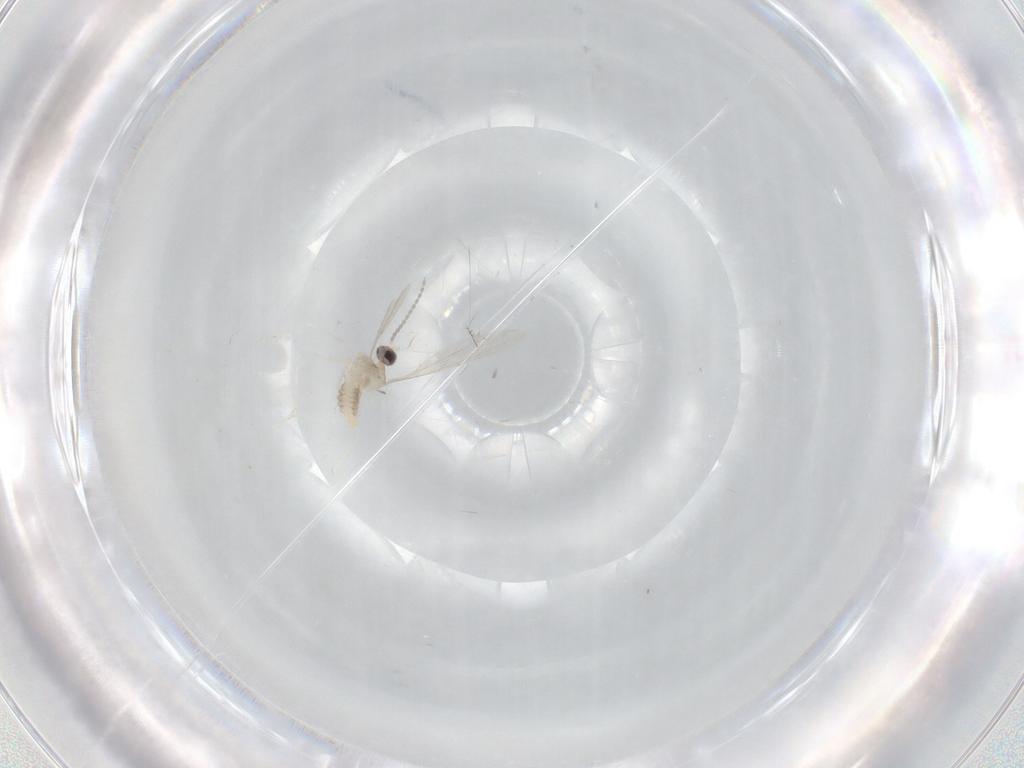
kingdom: Animalia
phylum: Arthropoda
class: Insecta
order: Diptera
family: Cecidomyiidae
